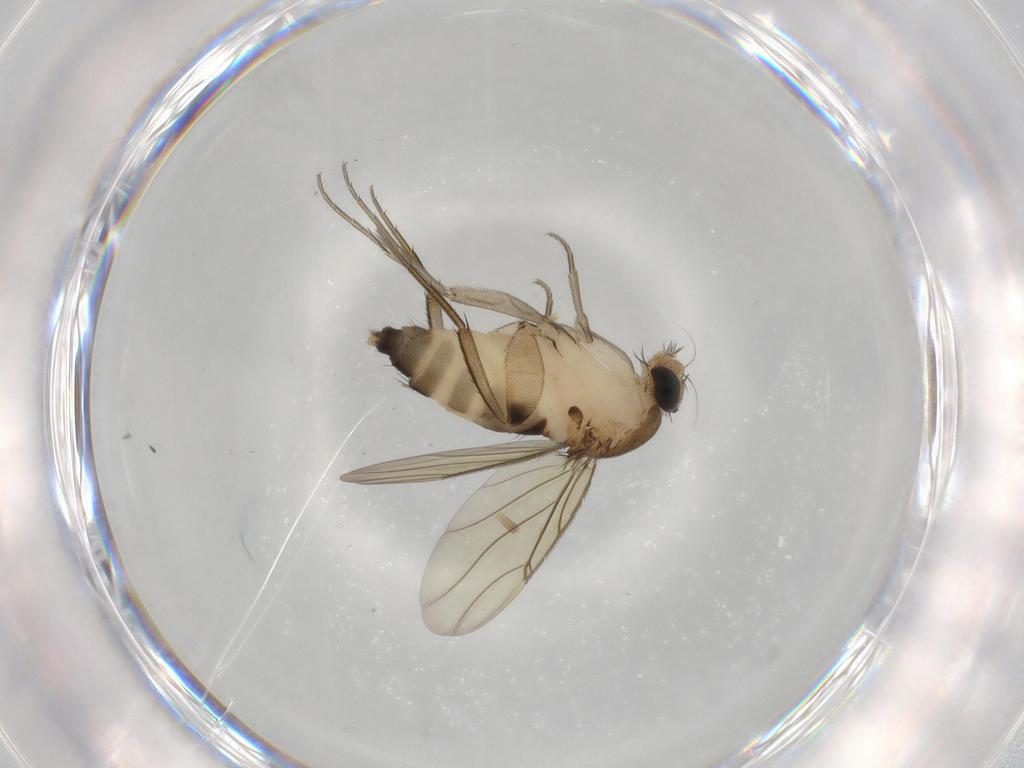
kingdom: Animalia
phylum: Arthropoda
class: Insecta
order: Diptera
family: Phoridae
